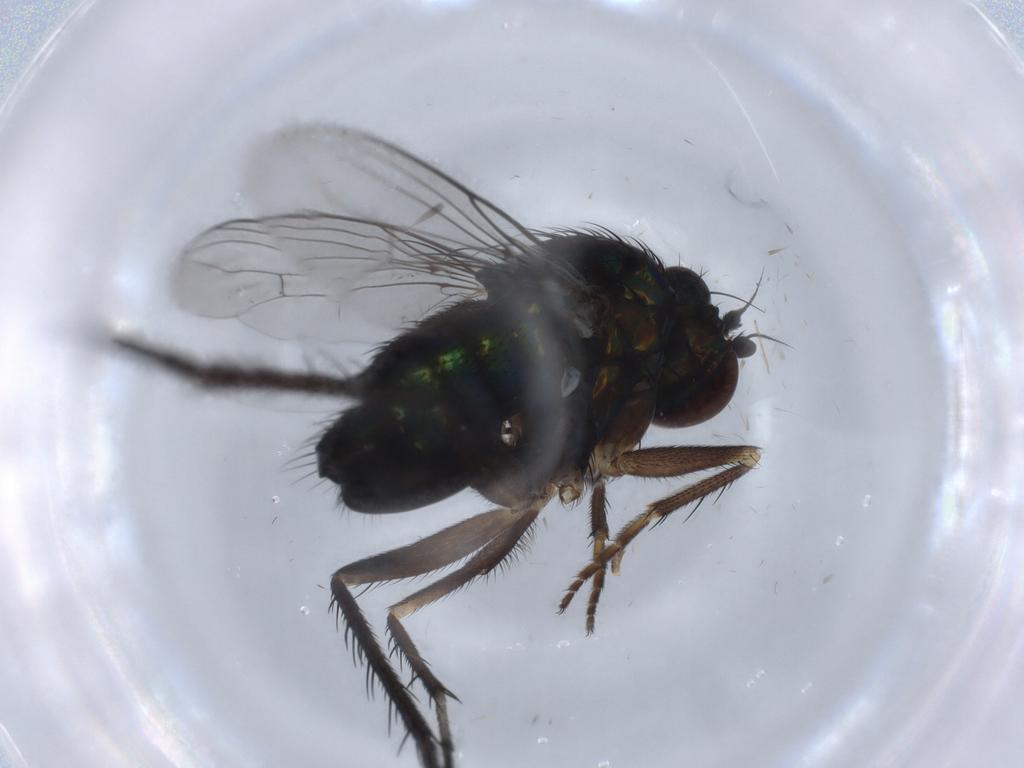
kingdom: Animalia
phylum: Arthropoda
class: Insecta
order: Diptera
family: Dolichopodidae
